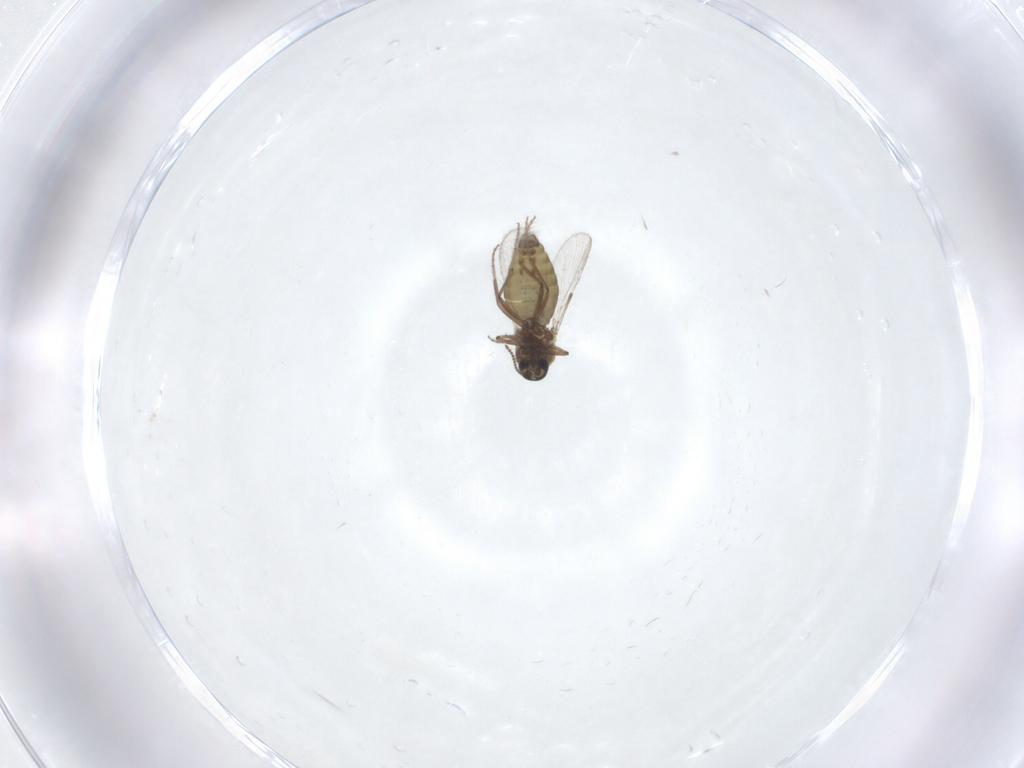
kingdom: Animalia
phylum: Arthropoda
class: Insecta
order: Diptera
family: Ceratopogonidae
